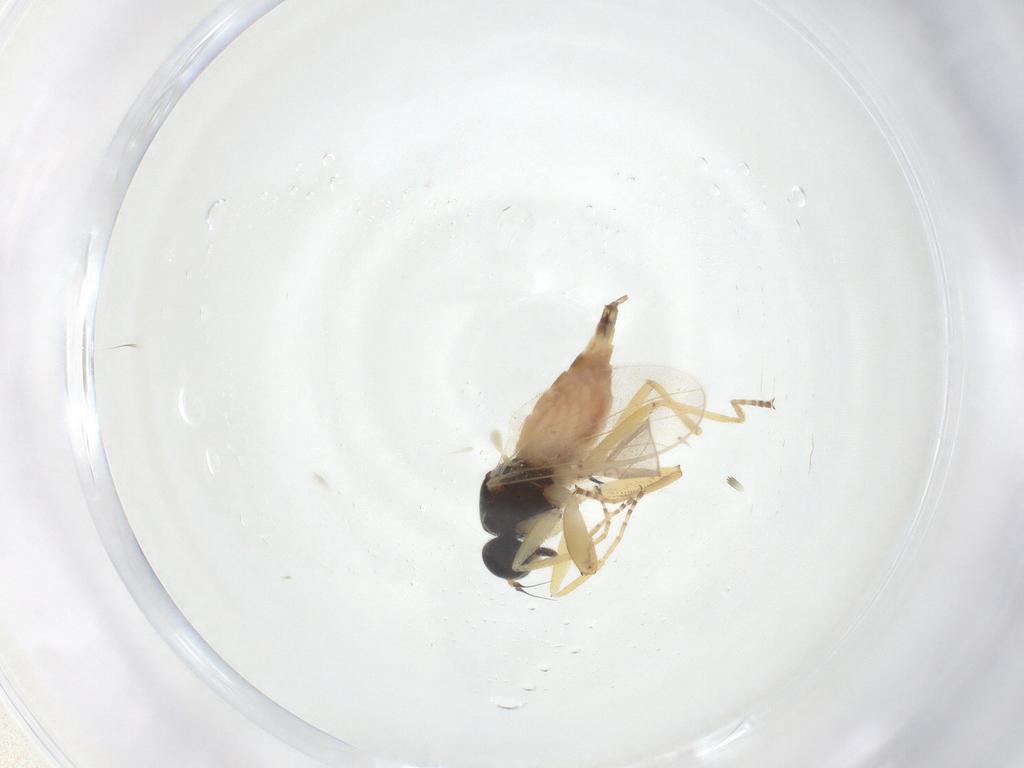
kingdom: Animalia
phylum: Arthropoda
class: Insecta
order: Diptera
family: Hybotidae
